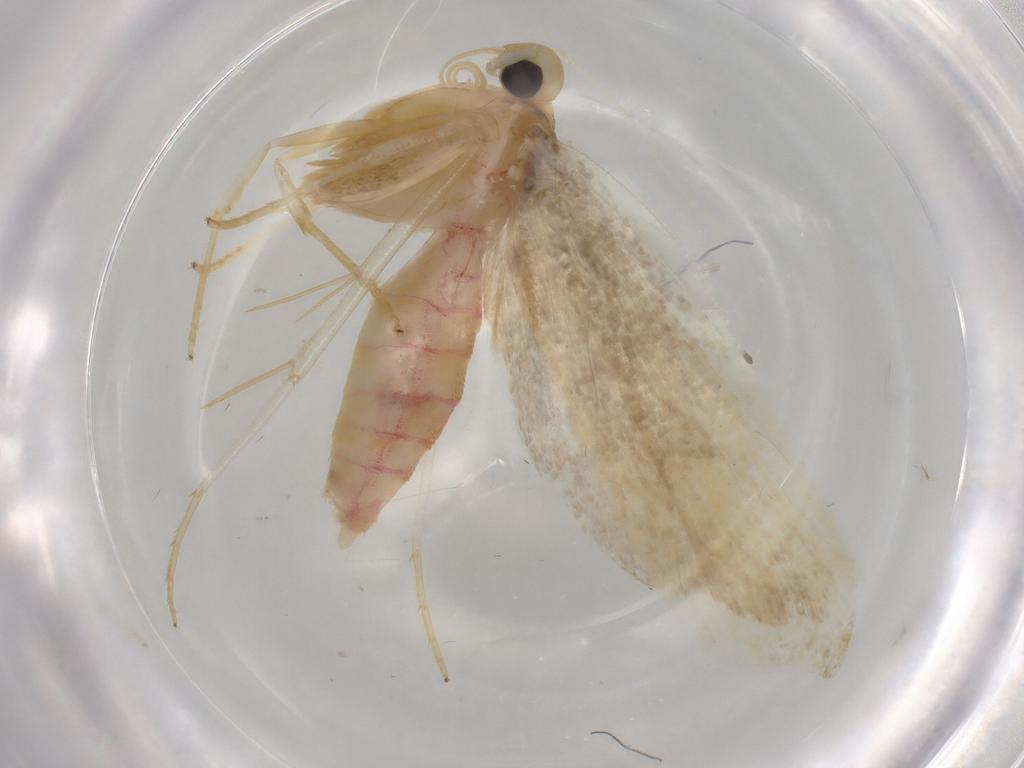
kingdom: Animalia
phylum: Arthropoda
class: Insecta
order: Lepidoptera
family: Lecithoceridae
